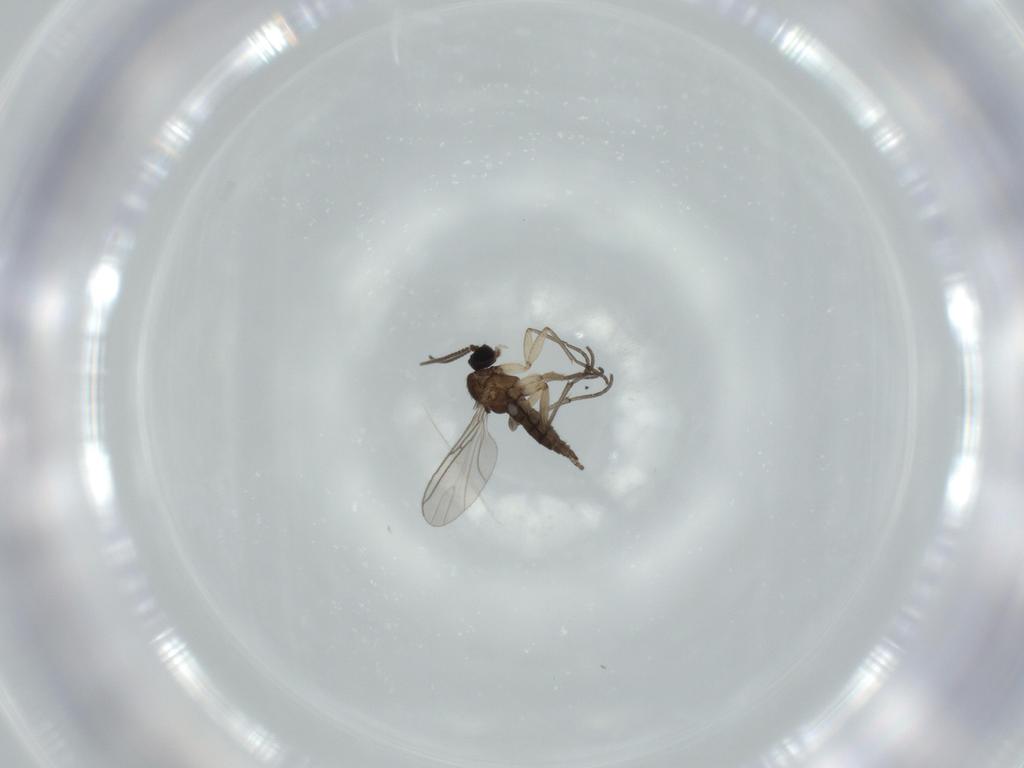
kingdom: Animalia
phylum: Arthropoda
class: Insecta
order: Diptera
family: Sciaridae
